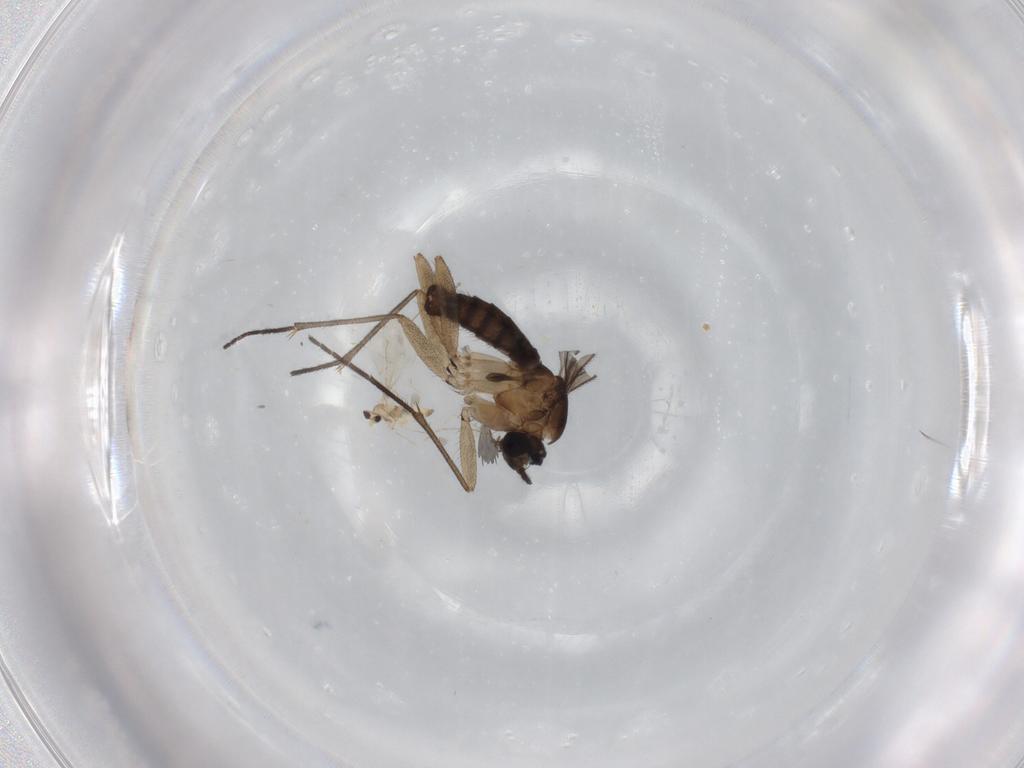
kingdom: Animalia
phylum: Arthropoda
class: Insecta
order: Diptera
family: Cecidomyiidae
